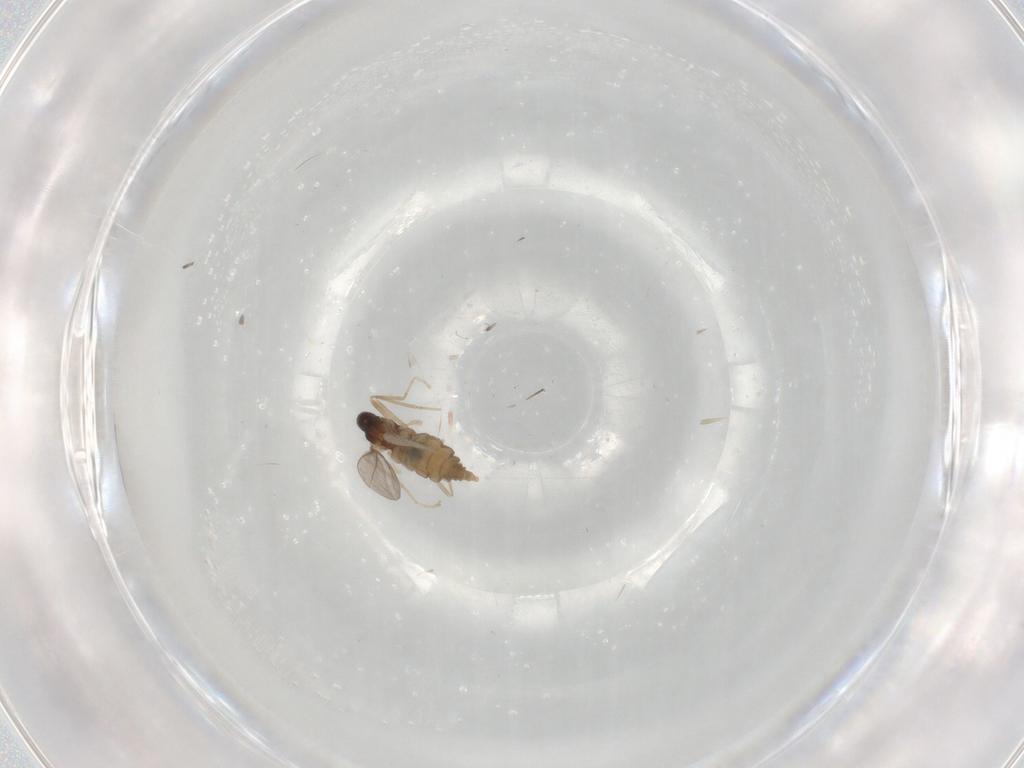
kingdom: Animalia
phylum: Arthropoda
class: Insecta
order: Diptera
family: Cecidomyiidae
